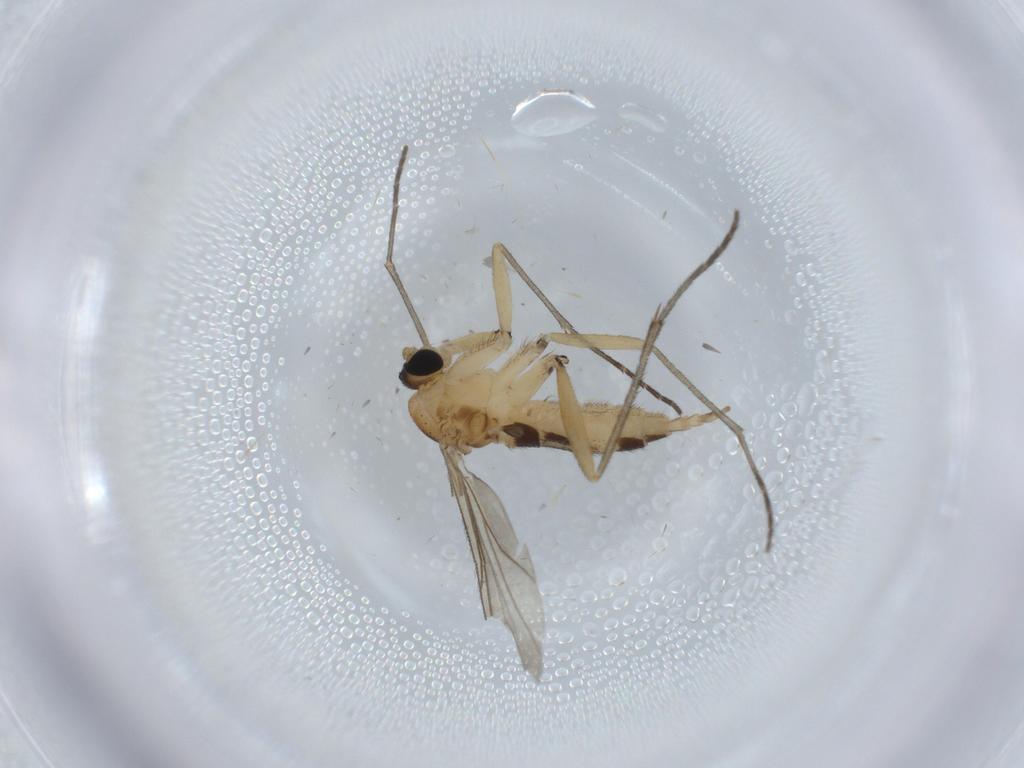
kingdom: Animalia
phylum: Arthropoda
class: Insecta
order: Diptera
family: Sciaridae
